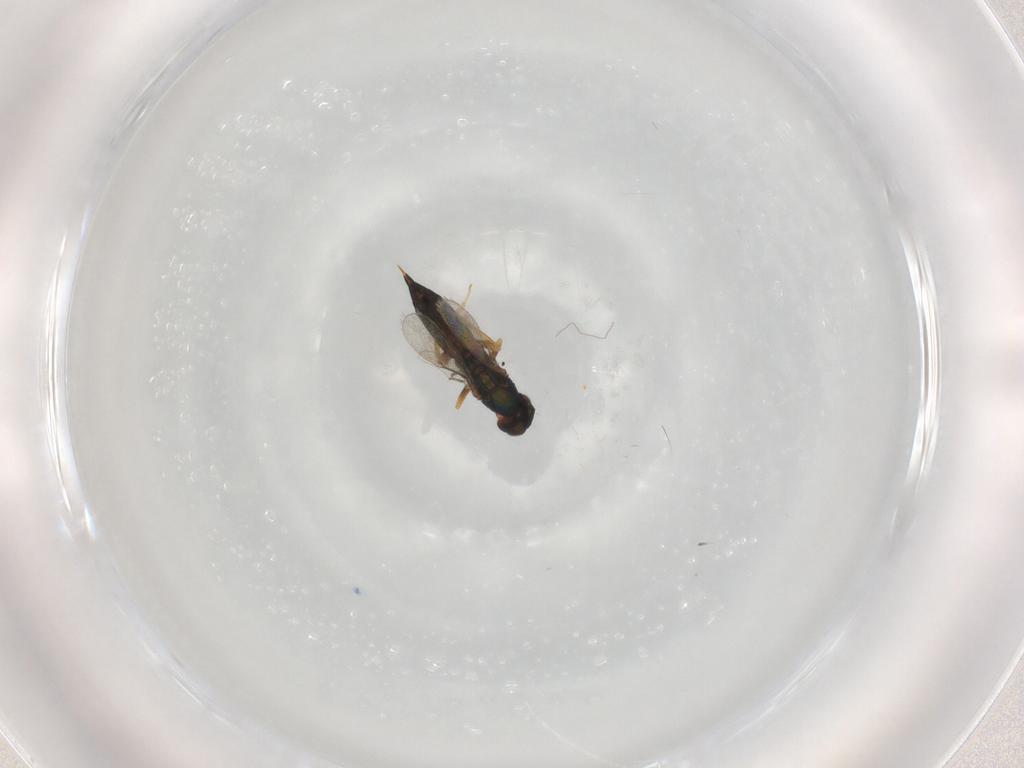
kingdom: Animalia
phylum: Arthropoda
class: Insecta
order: Hymenoptera
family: Eulophidae
